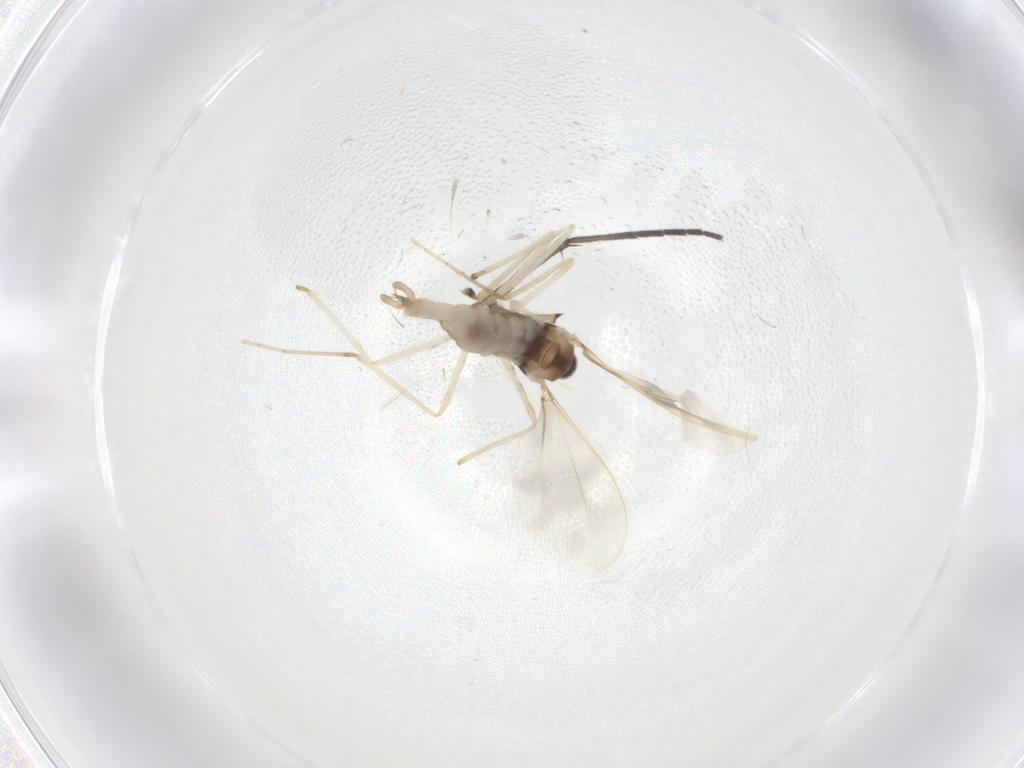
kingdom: Animalia
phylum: Arthropoda
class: Insecta
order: Diptera
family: Cecidomyiidae
